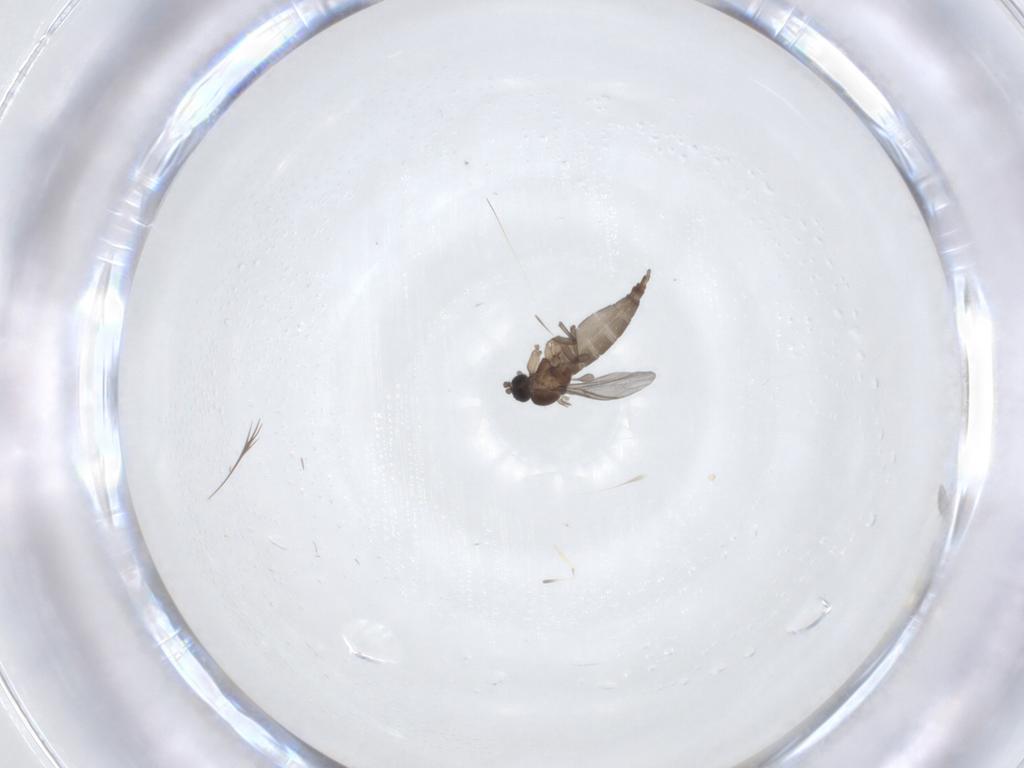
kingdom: Animalia
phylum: Arthropoda
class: Insecta
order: Diptera
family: Sciaridae
